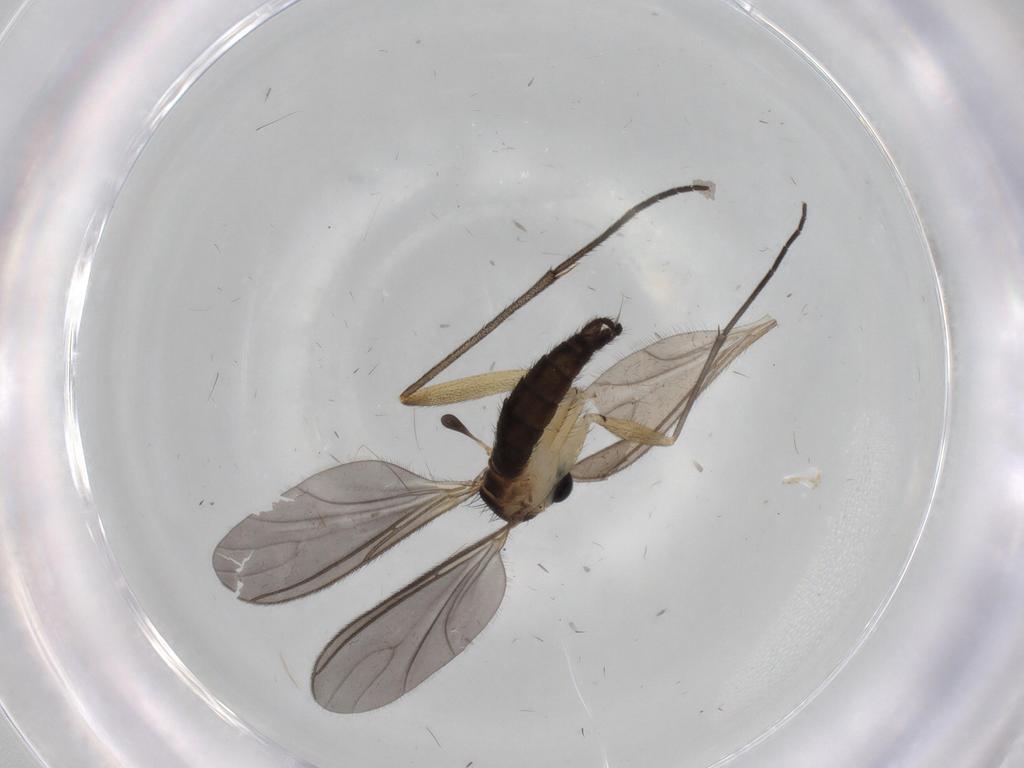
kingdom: Animalia
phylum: Arthropoda
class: Insecta
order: Diptera
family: Sciaridae
